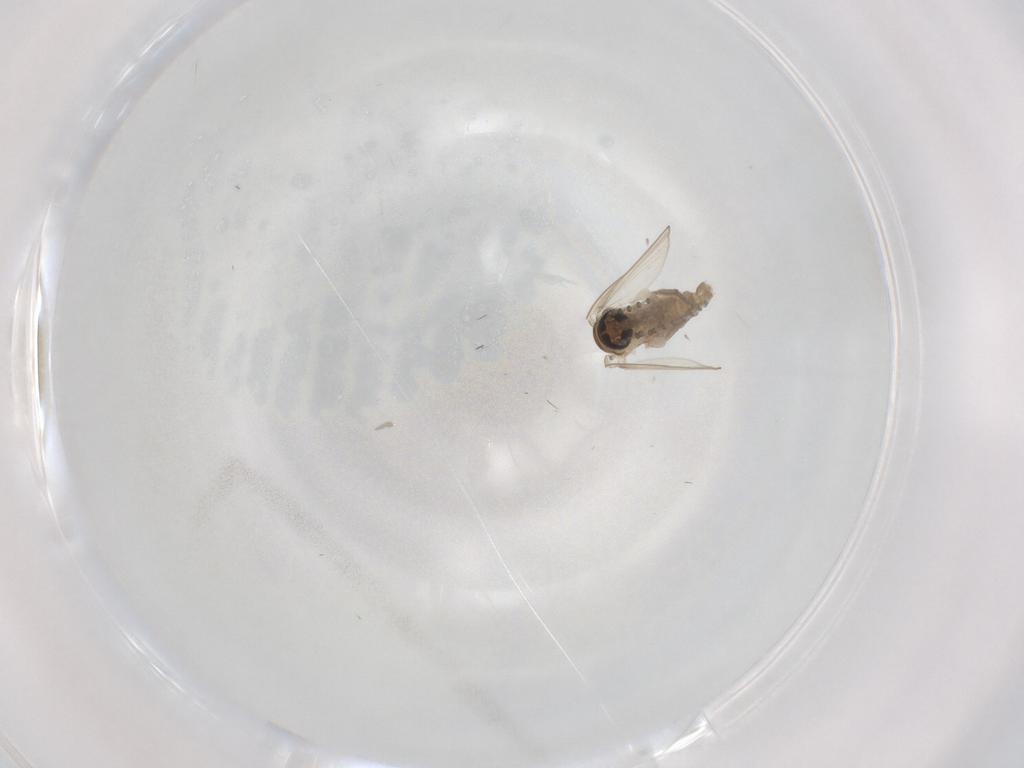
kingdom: Animalia
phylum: Arthropoda
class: Insecta
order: Diptera
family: Psychodidae
